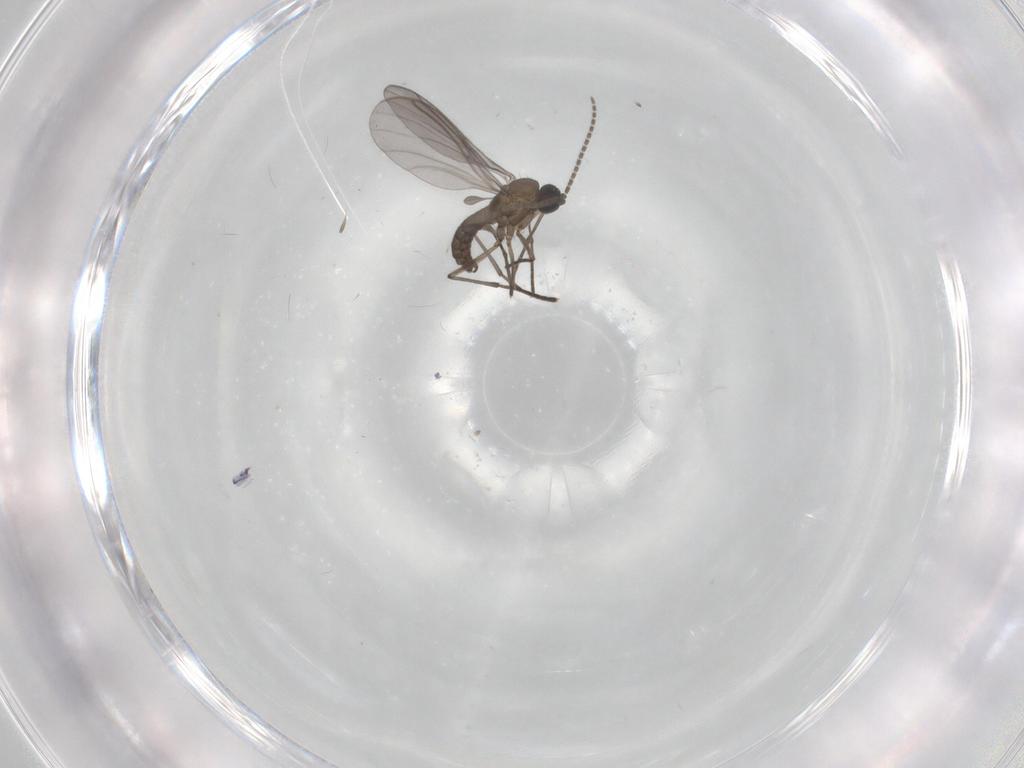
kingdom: Animalia
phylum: Arthropoda
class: Insecta
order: Diptera
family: Sciaridae
